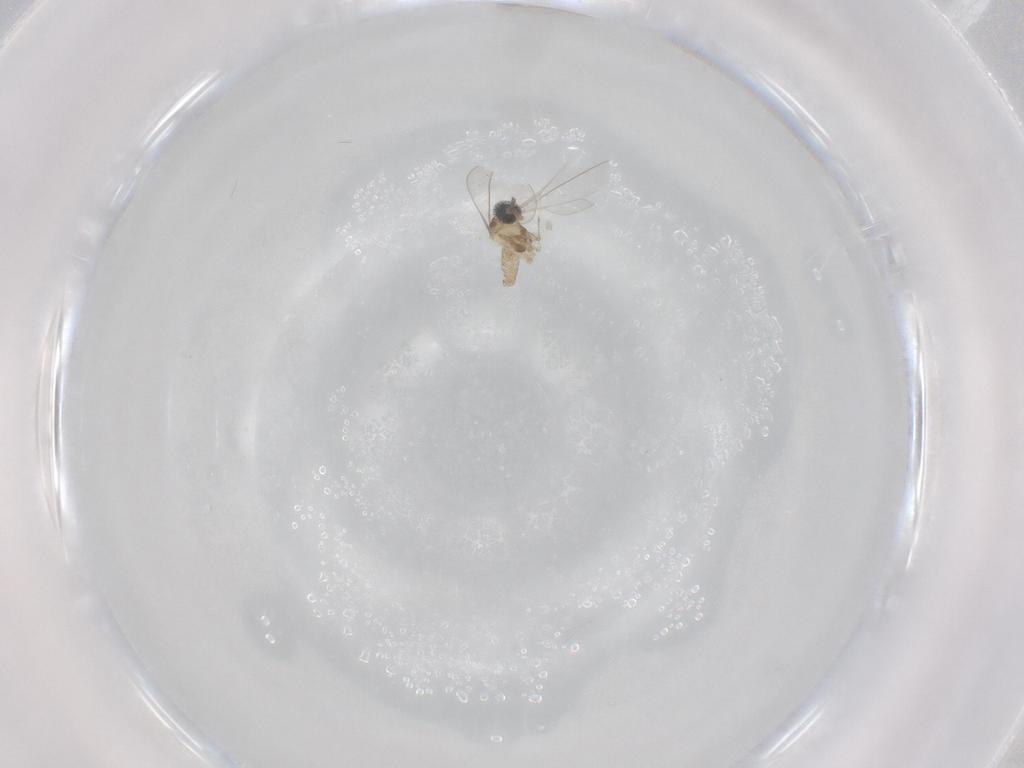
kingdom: Animalia
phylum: Arthropoda
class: Insecta
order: Diptera
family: Cecidomyiidae
